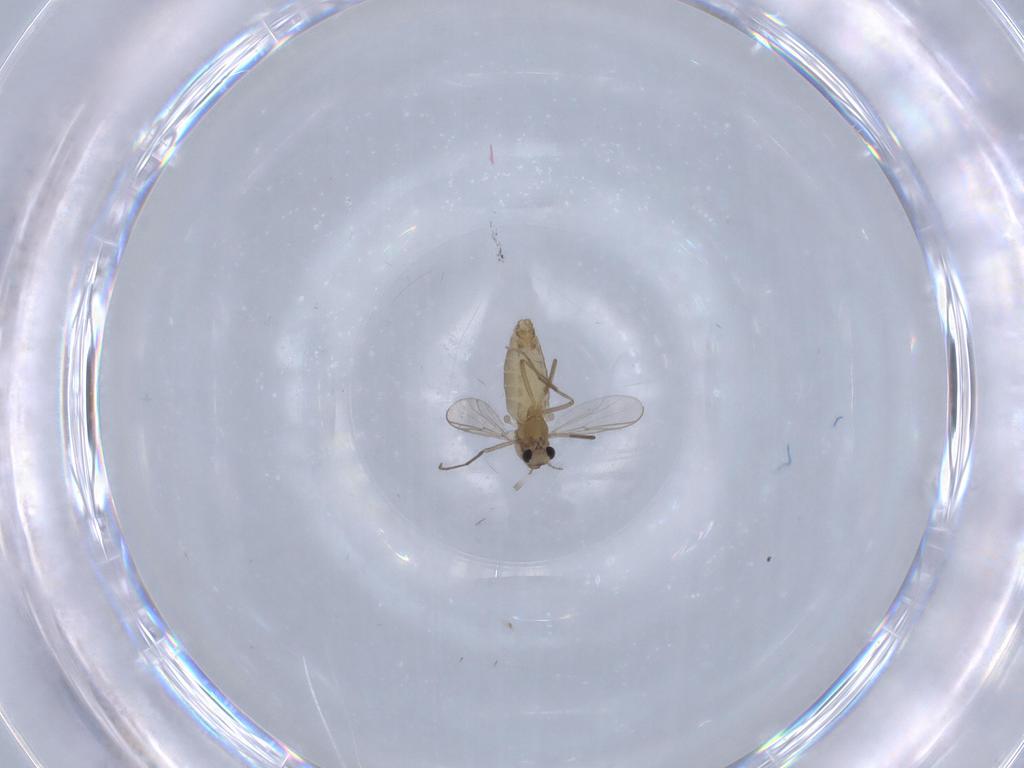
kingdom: Animalia
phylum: Arthropoda
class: Insecta
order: Diptera
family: Chironomidae
